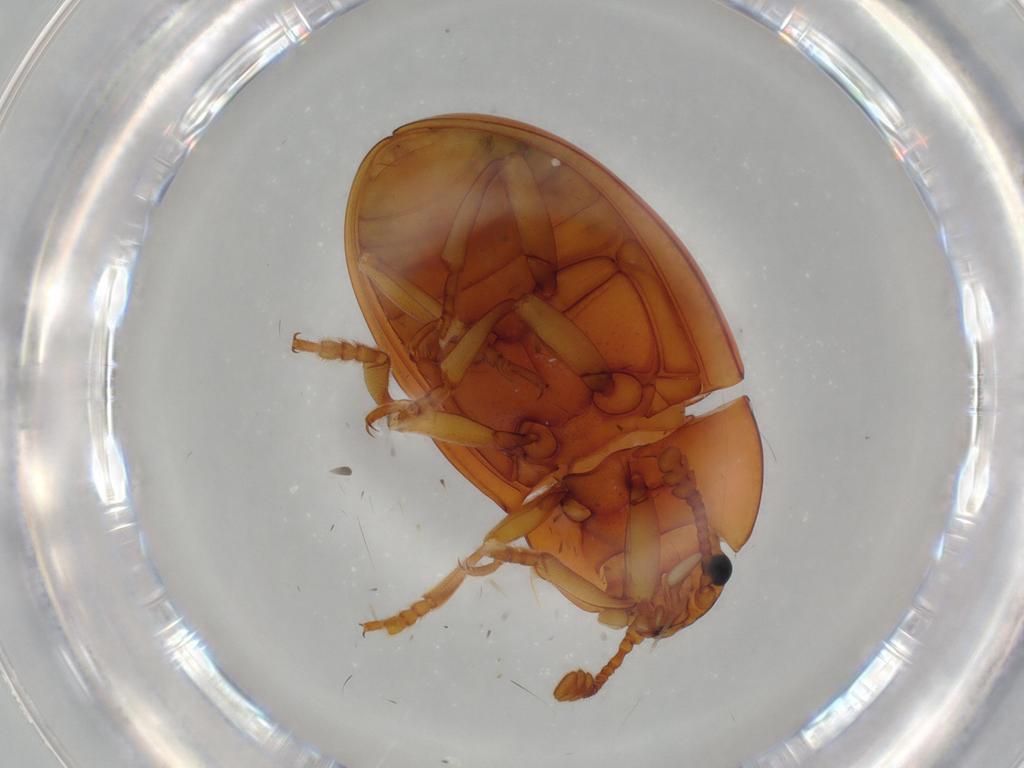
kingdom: Animalia
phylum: Arthropoda
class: Insecta
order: Coleoptera
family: Erotylidae
